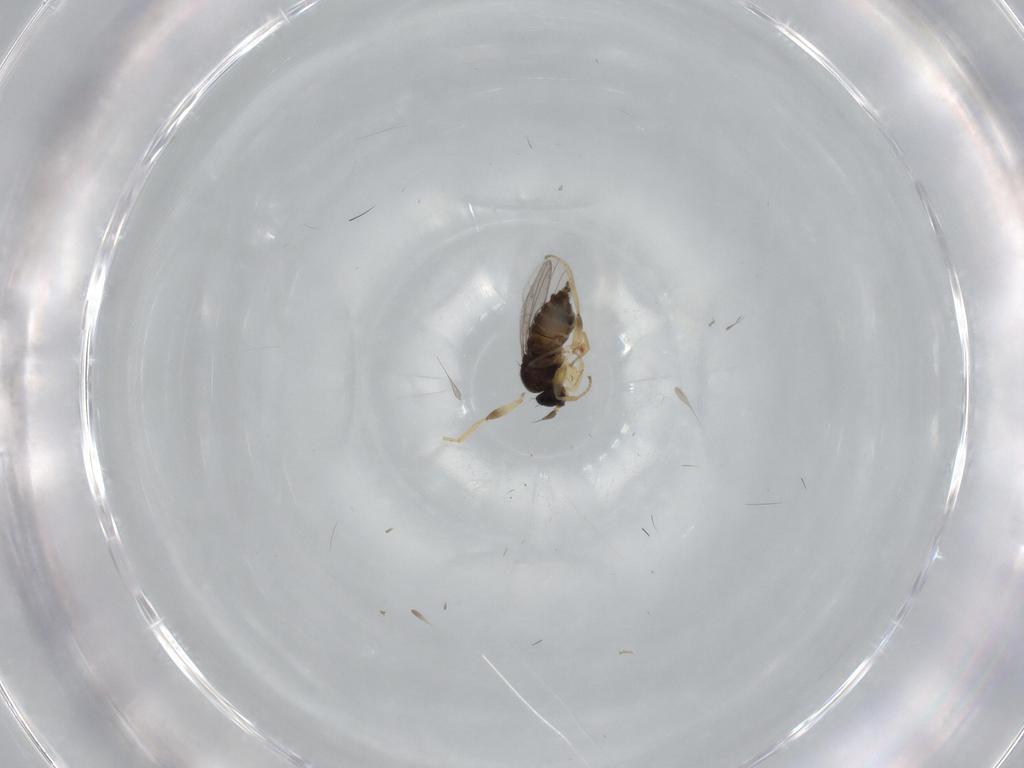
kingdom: Animalia
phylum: Arthropoda
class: Insecta
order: Diptera
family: Hybotidae
